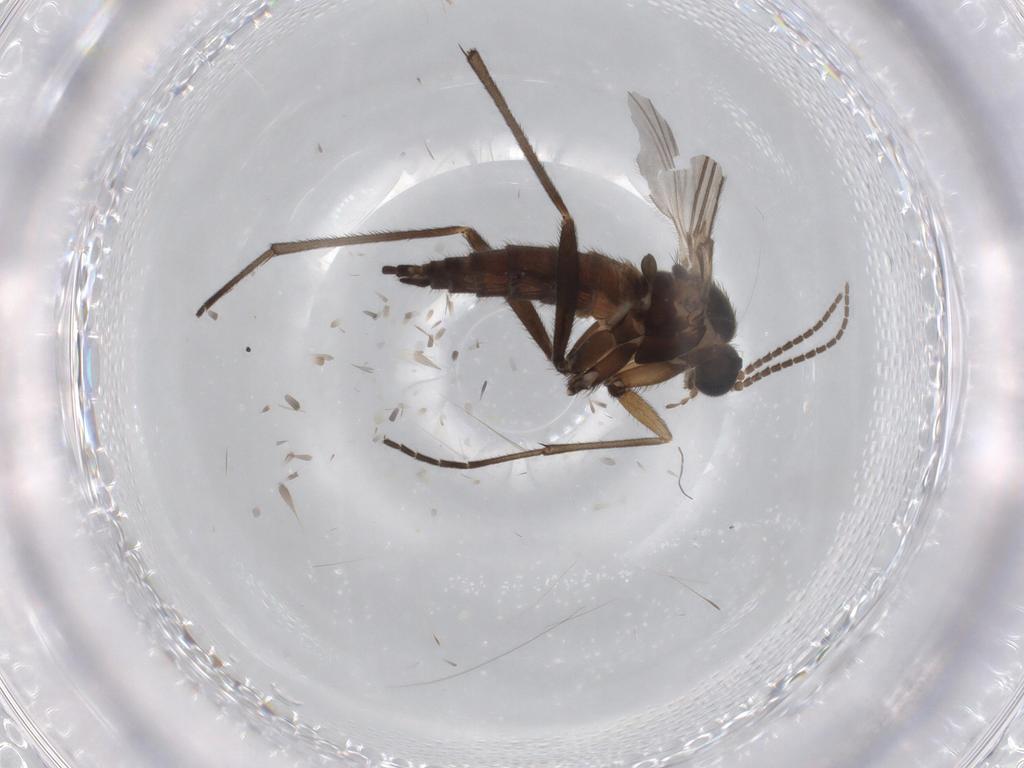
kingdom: Animalia
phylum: Arthropoda
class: Insecta
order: Diptera
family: Sciaridae
